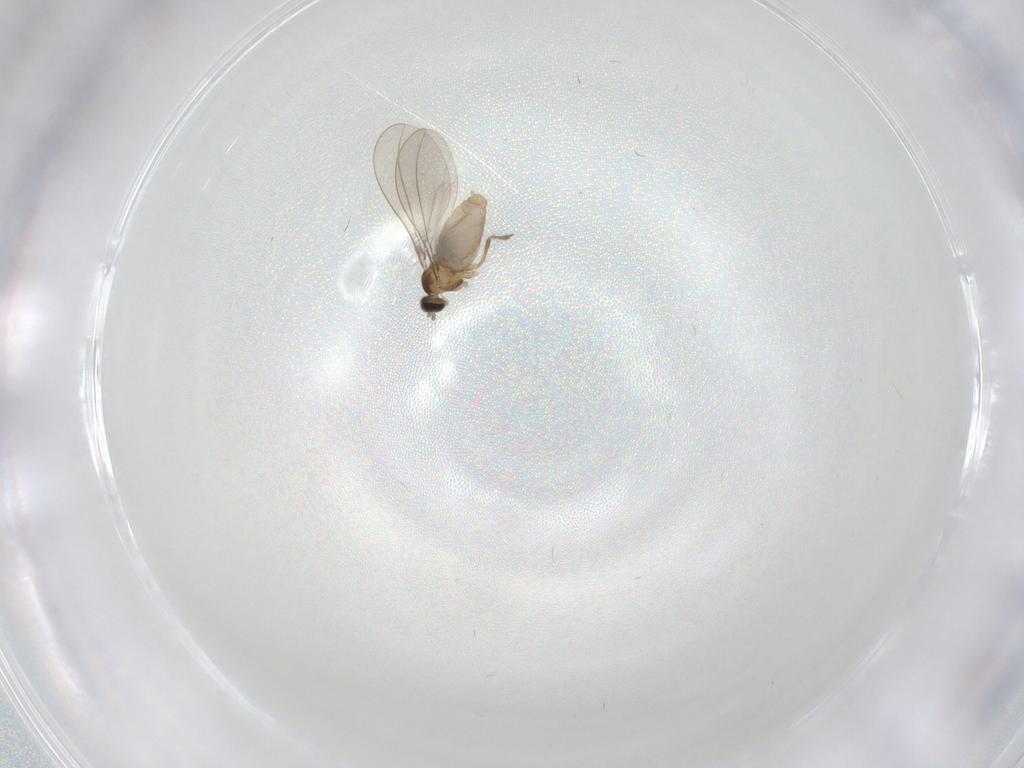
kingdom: Animalia
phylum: Arthropoda
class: Insecta
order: Diptera
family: Cecidomyiidae
